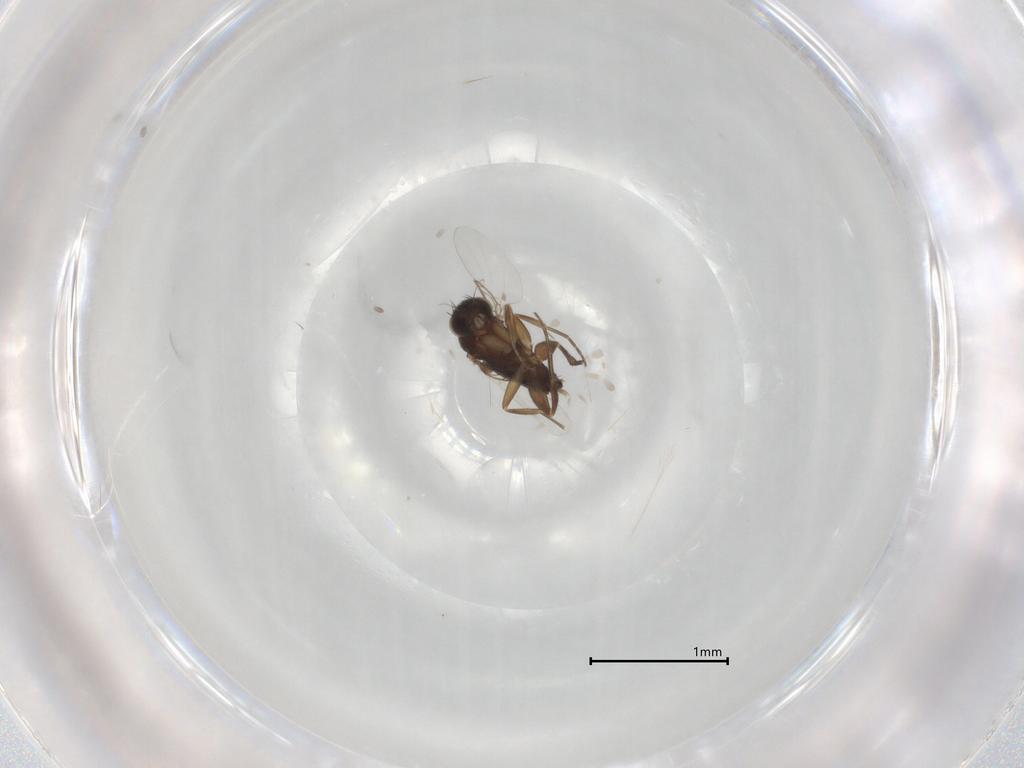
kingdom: Animalia
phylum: Arthropoda
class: Insecta
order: Diptera
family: Phoridae
